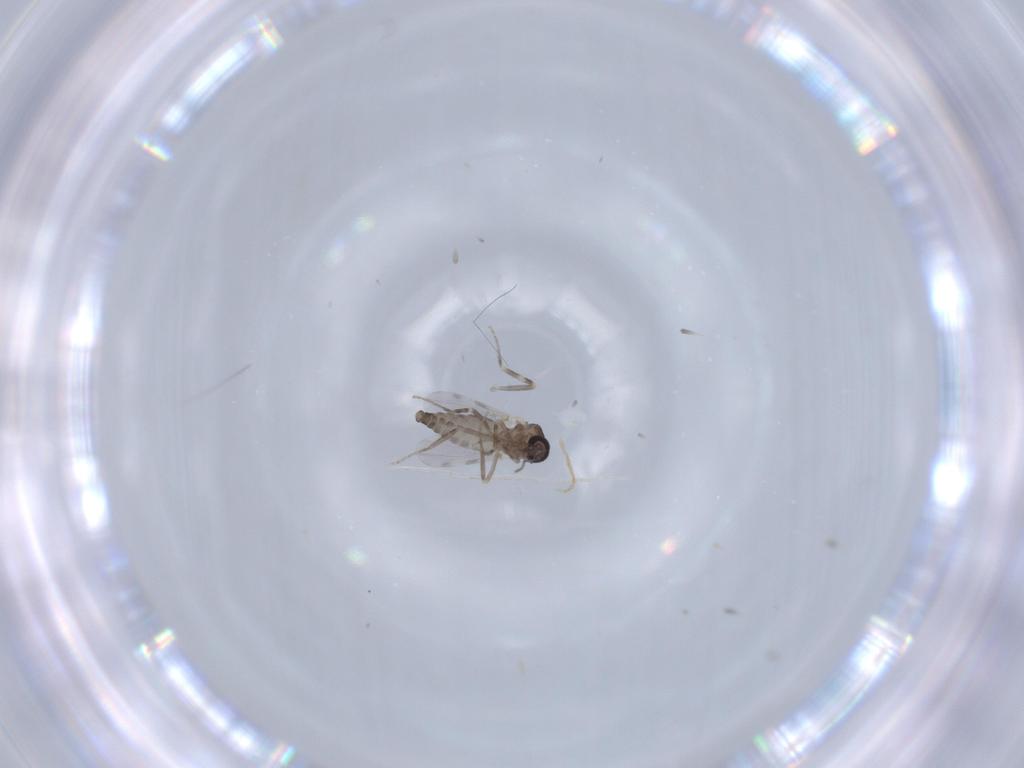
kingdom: Animalia
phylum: Arthropoda
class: Insecta
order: Diptera
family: Ceratopogonidae
